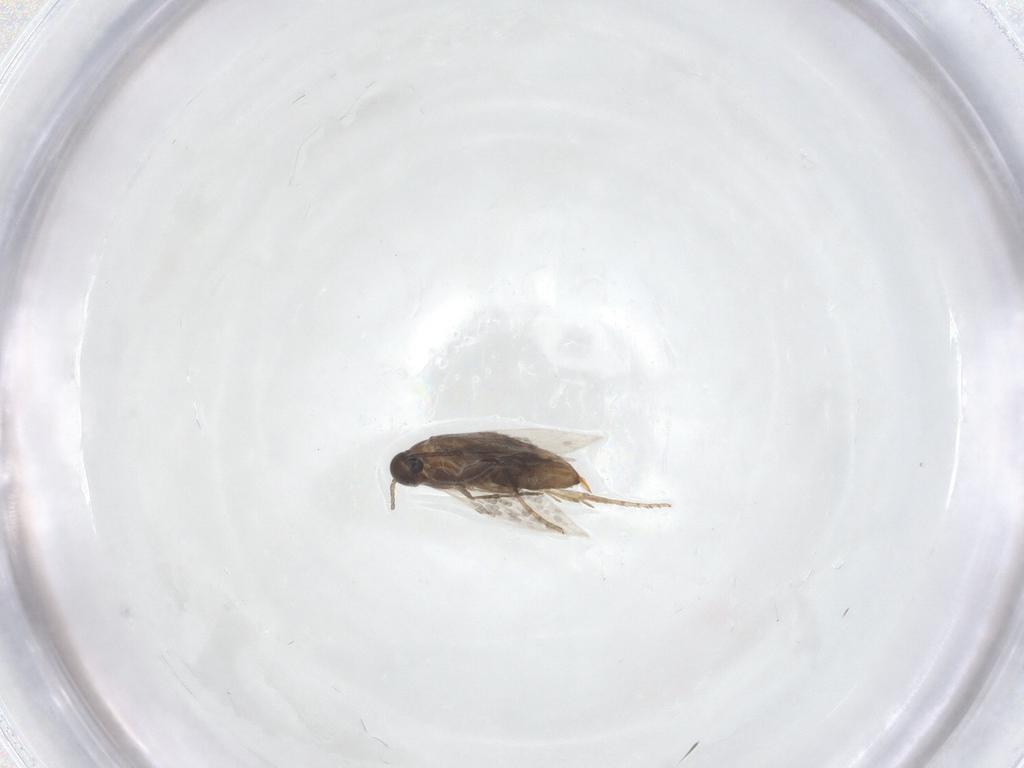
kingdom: Animalia
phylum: Arthropoda
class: Insecta
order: Lepidoptera
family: Heliozelidae
